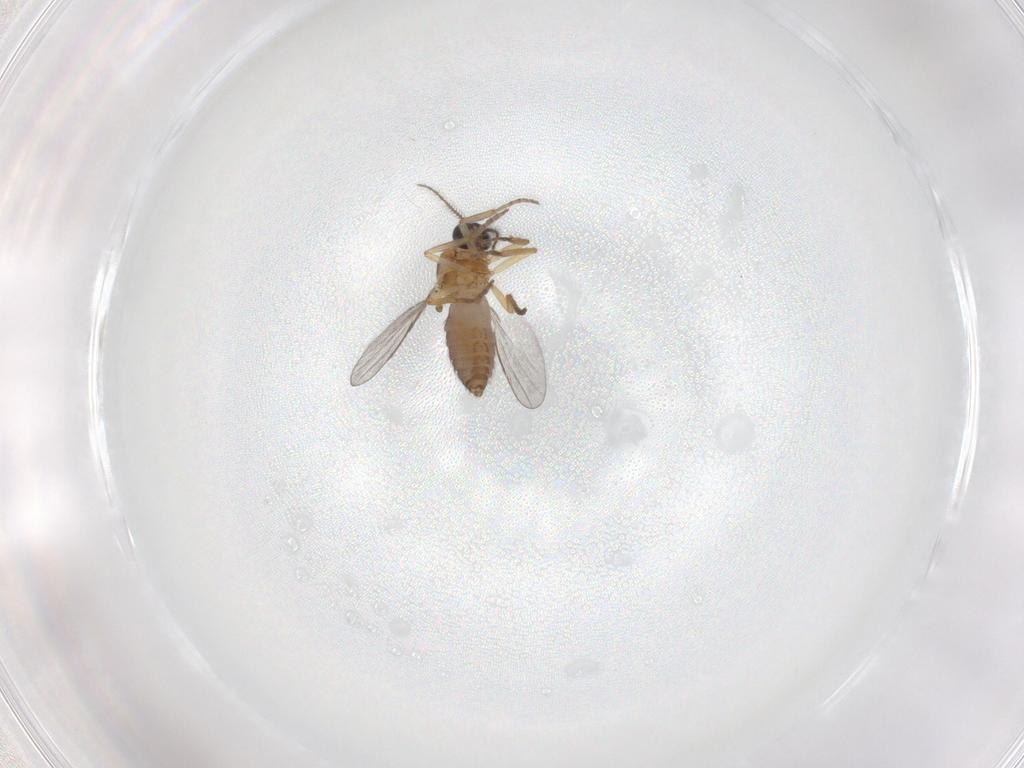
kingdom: Animalia
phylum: Arthropoda
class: Insecta
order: Diptera
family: Ceratopogonidae
